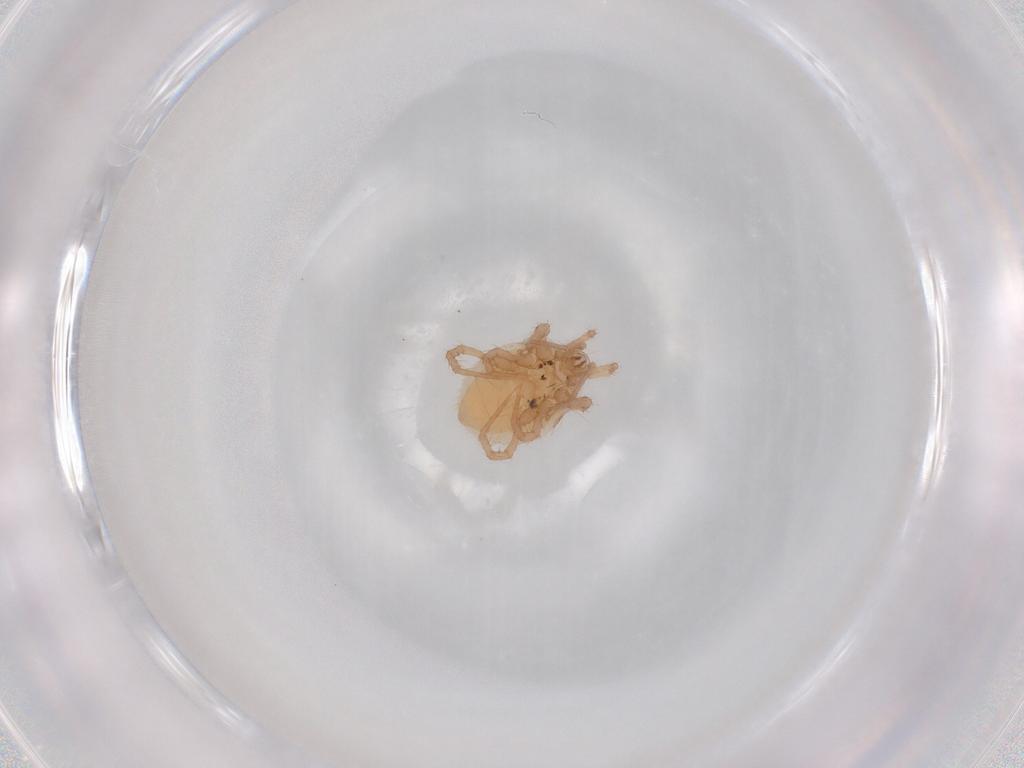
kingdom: Animalia
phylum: Arthropoda
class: Arachnida
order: Mesostigmata
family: Parasitidae
